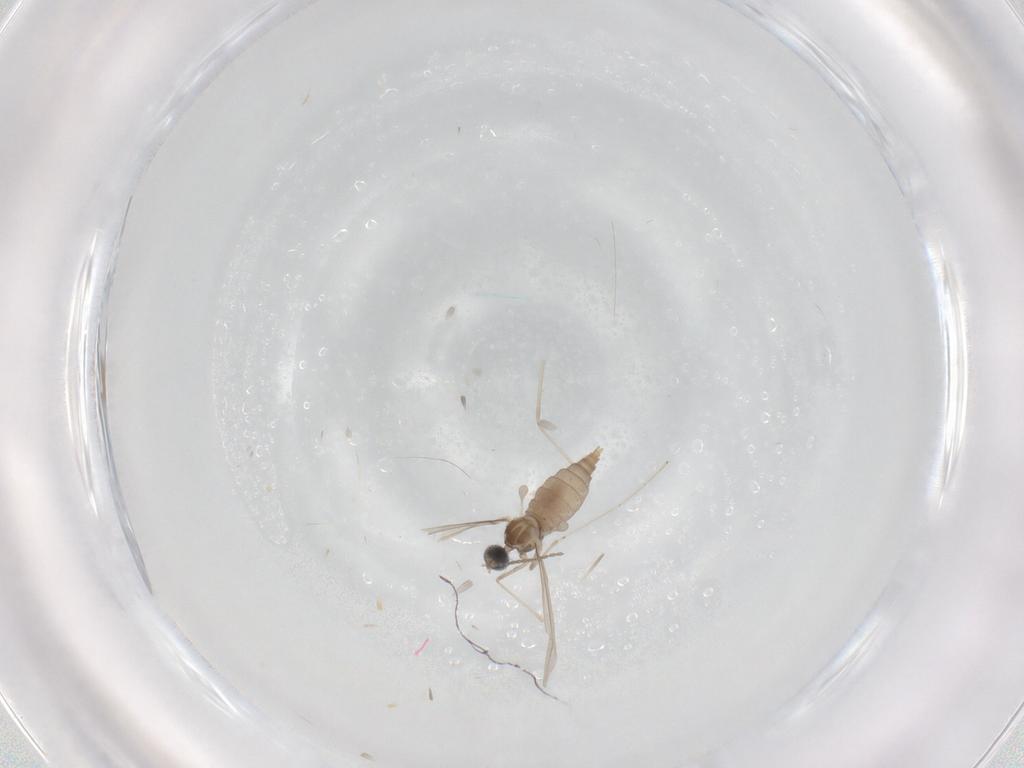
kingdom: Animalia
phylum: Arthropoda
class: Insecta
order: Diptera
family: Cecidomyiidae
